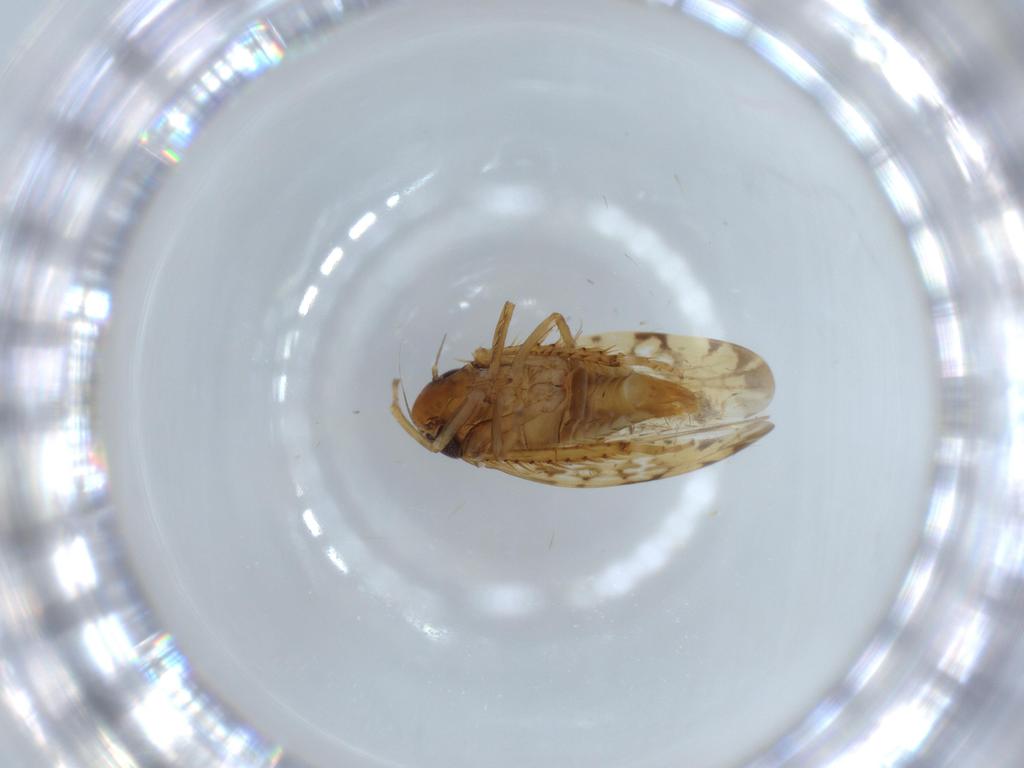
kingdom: Animalia
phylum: Arthropoda
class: Insecta
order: Hemiptera
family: Cicadellidae
